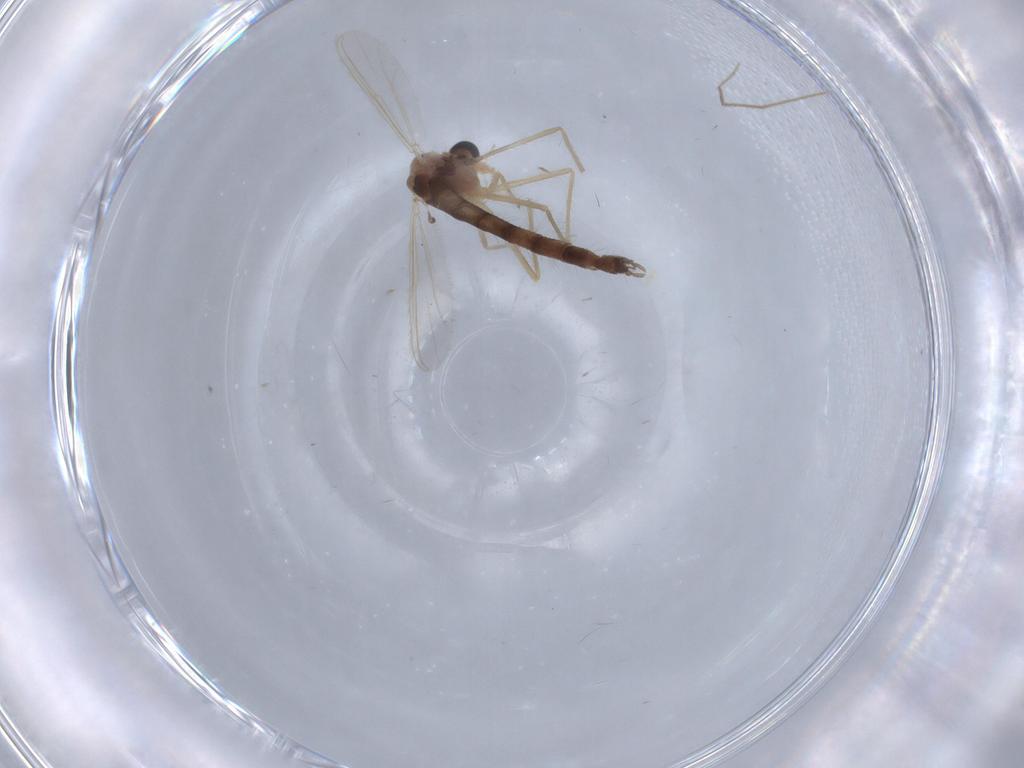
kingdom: Animalia
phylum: Arthropoda
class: Insecta
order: Diptera
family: Chironomidae
